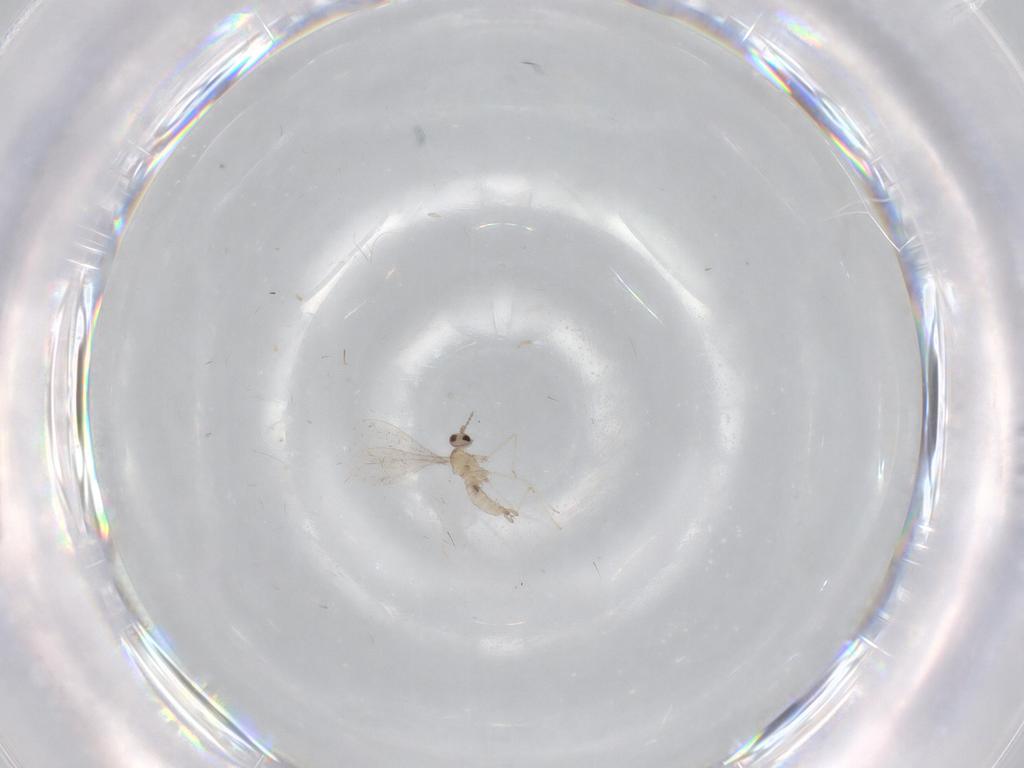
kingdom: Animalia
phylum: Arthropoda
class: Insecta
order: Diptera
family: Cecidomyiidae
